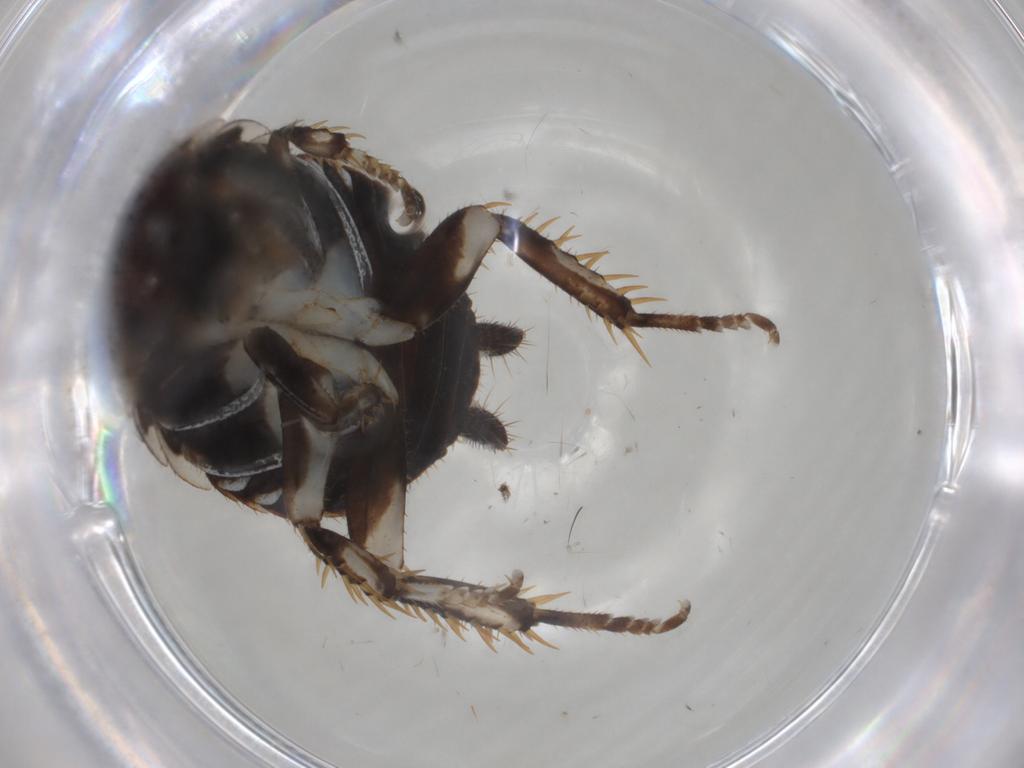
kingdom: Animalia
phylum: Arthropoda
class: Insecta
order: Blattodea
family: Blaberidae
